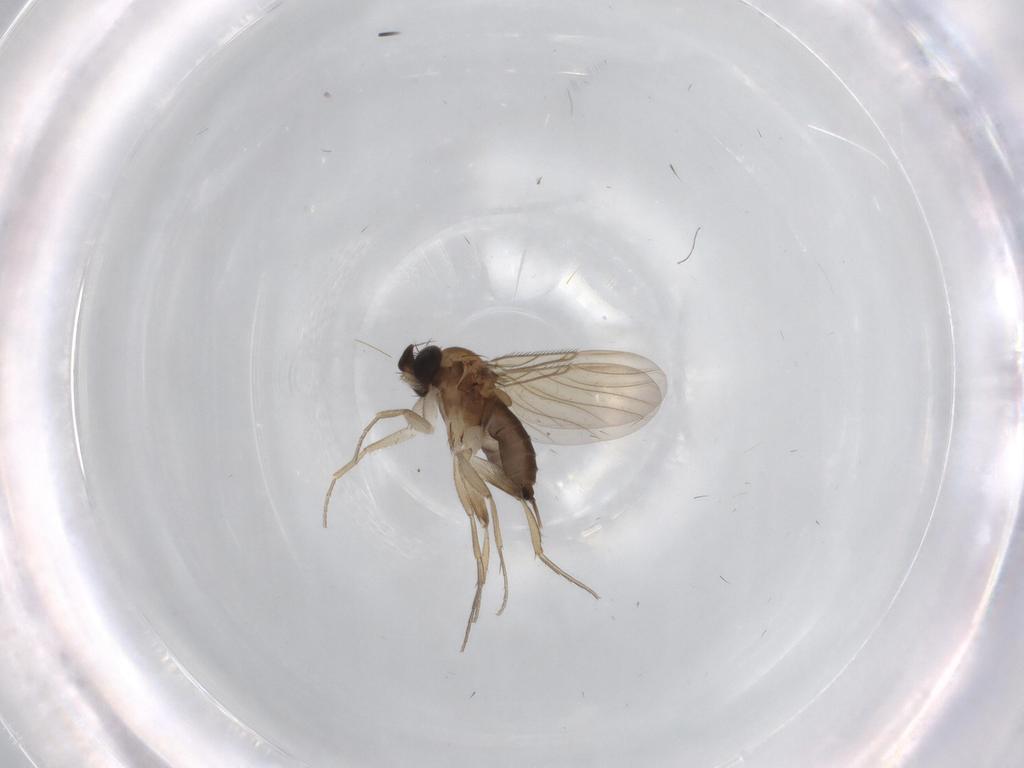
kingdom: Animalia
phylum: Arthropoda
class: Insecta
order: Diptera
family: Phoridae
